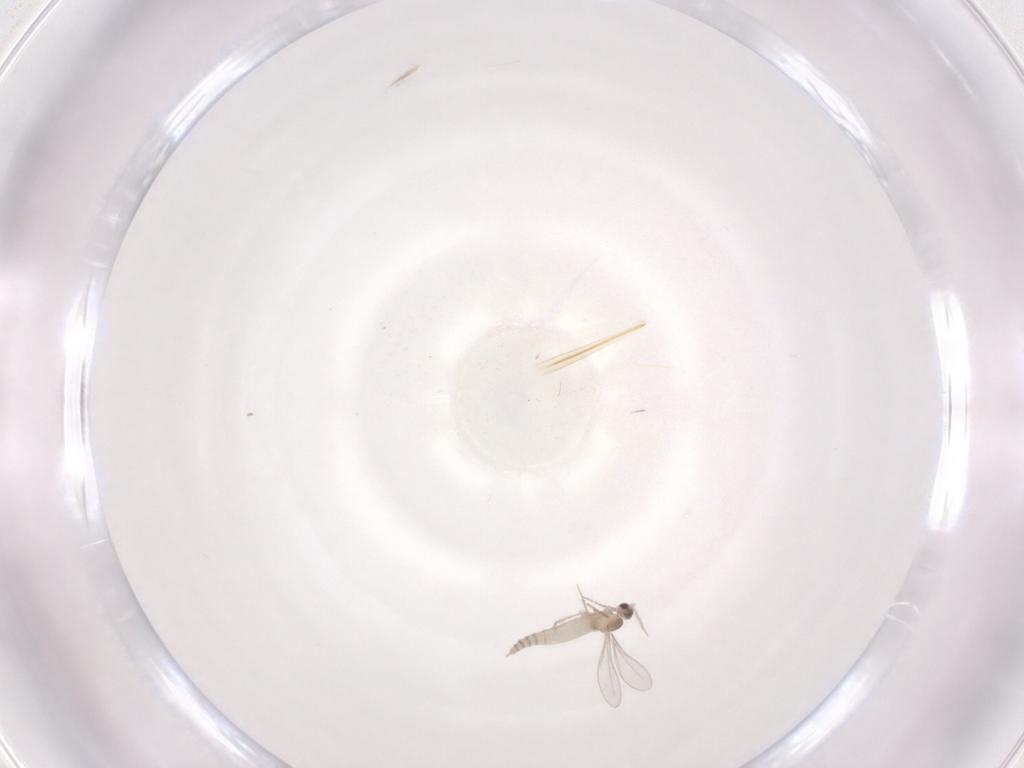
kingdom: Animalia
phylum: Arthropoda
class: Insecta
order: Diptera
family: Cecidomyiidae
